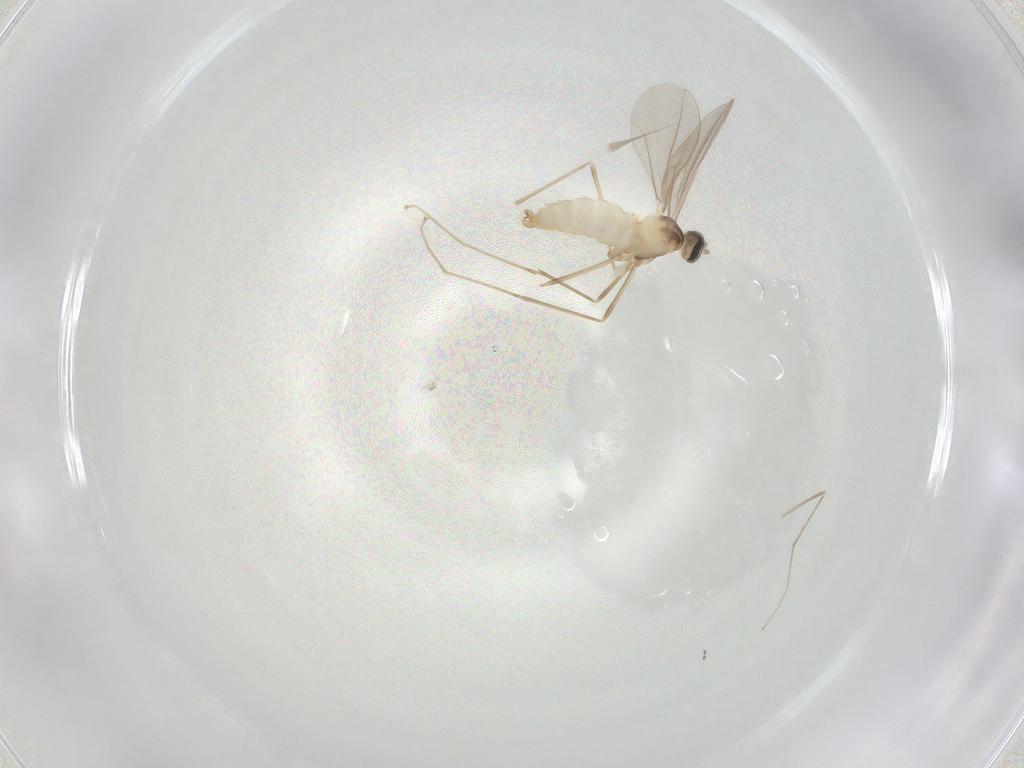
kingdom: Animalia
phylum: Arthropoda
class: Insecta
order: Diptera
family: Cecidomyiidae
